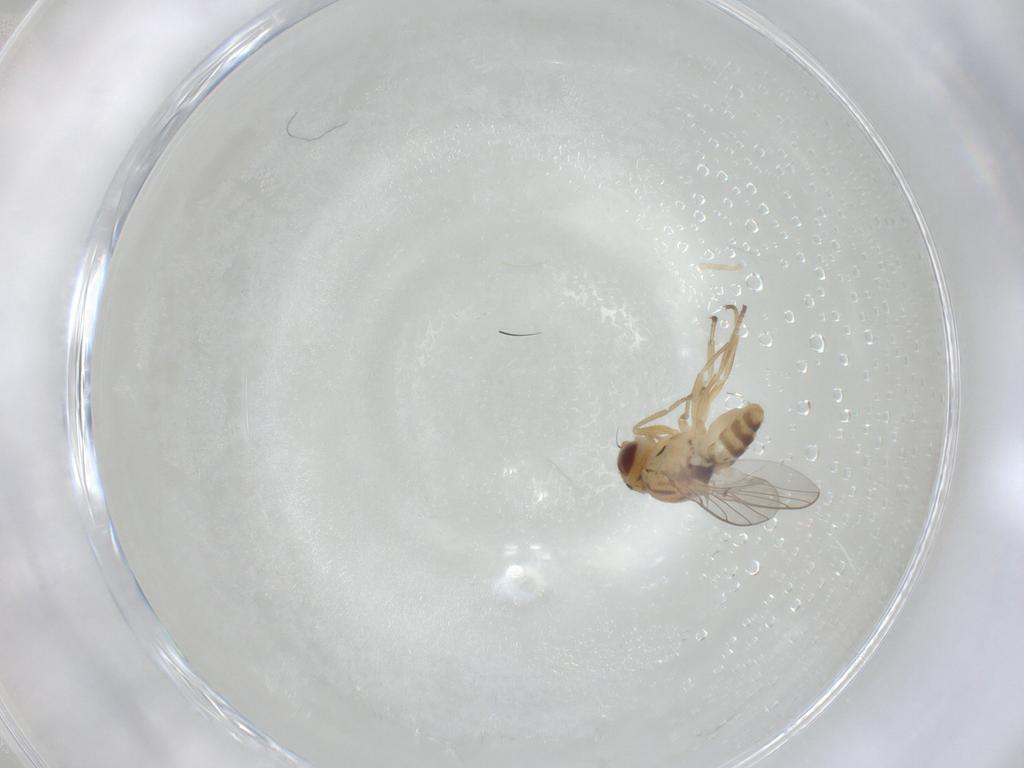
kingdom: Animalia
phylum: Arthropoda
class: Insecta
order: Diptera
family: Chloropidae
